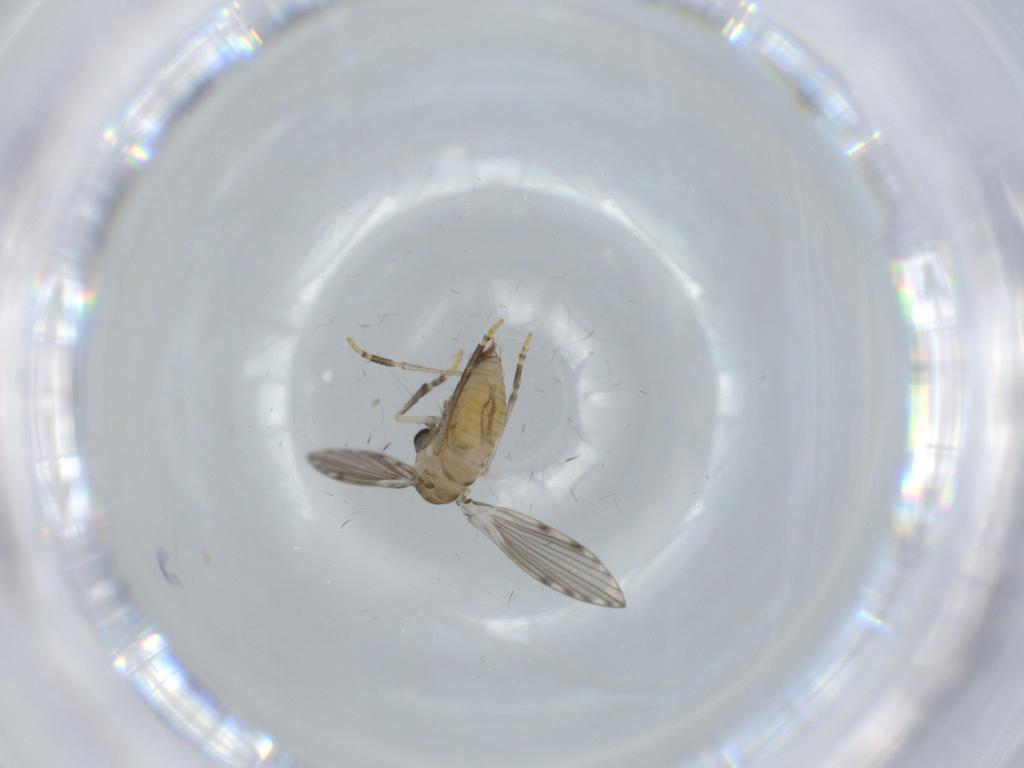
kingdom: Animalia
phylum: Arthropoda
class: Insecta
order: Diptera
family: Psychodidae
